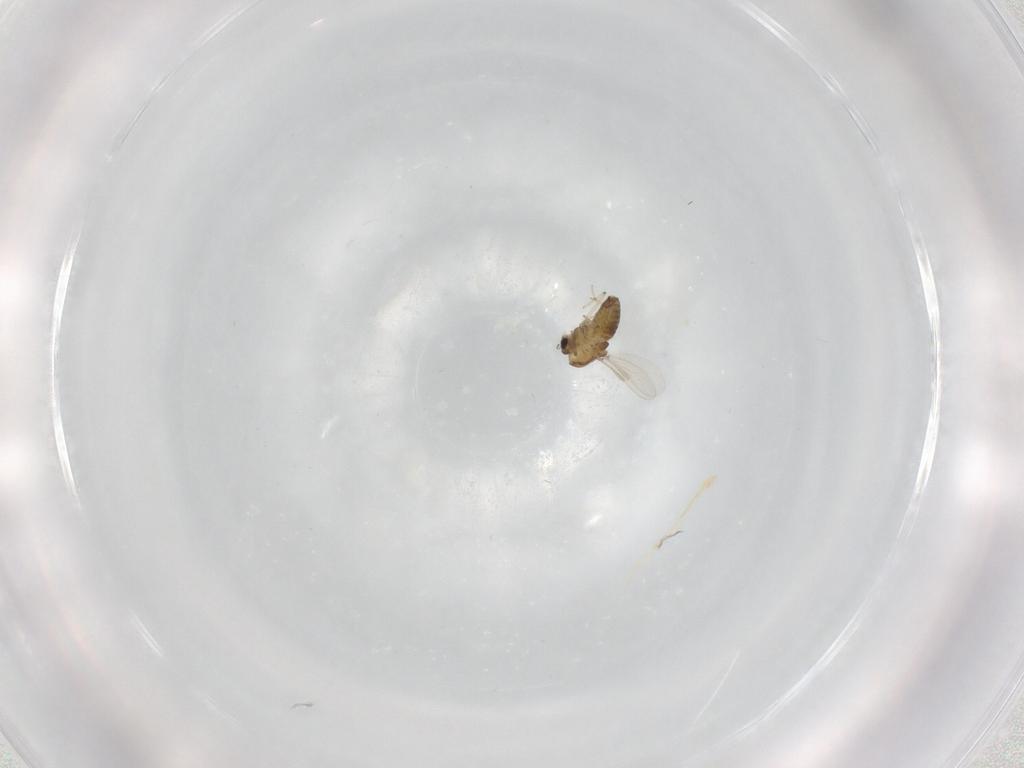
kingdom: Animalia
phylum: Arthropoda
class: Insecta
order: Diptera
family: Chironomidae
